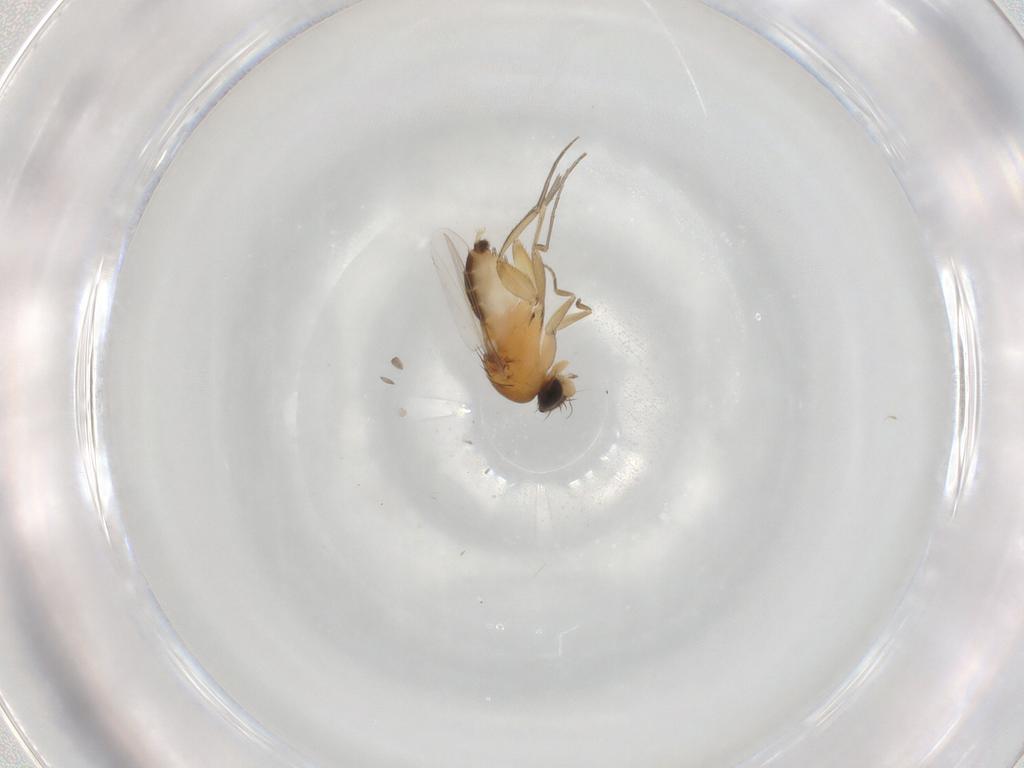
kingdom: Animalia
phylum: Arthropoda
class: Insecta
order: Diptera
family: Phoridae
